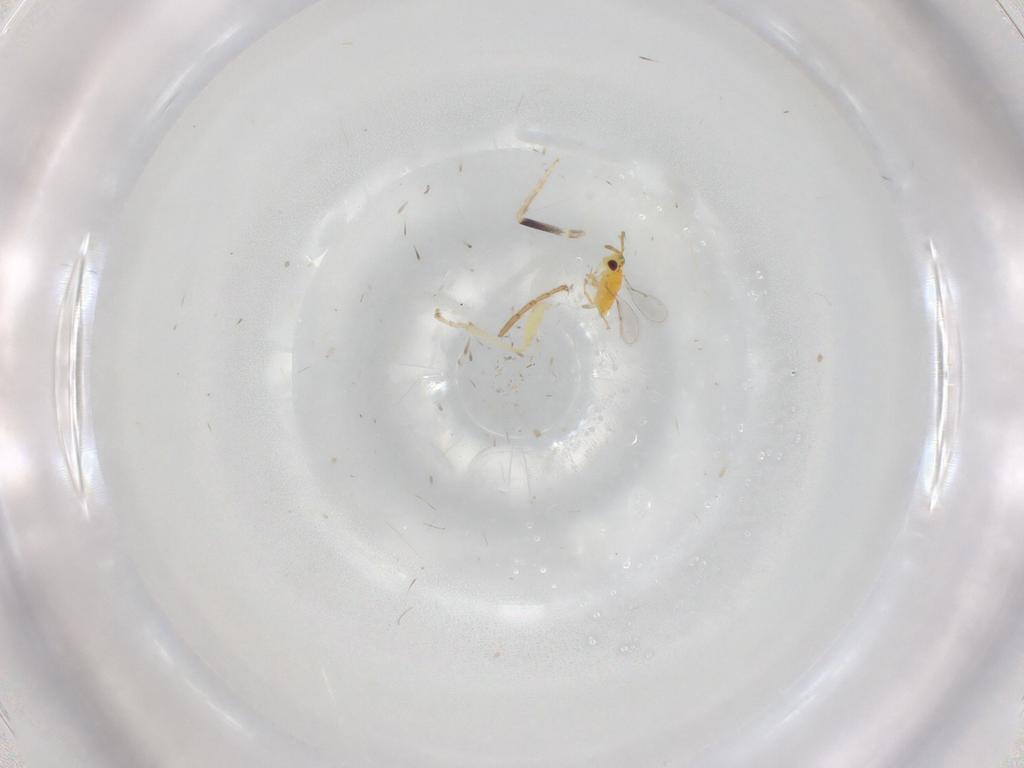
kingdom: Animalia
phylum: Arthropoda
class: Insecta
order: Hymenoptera
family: Aphelinidae
